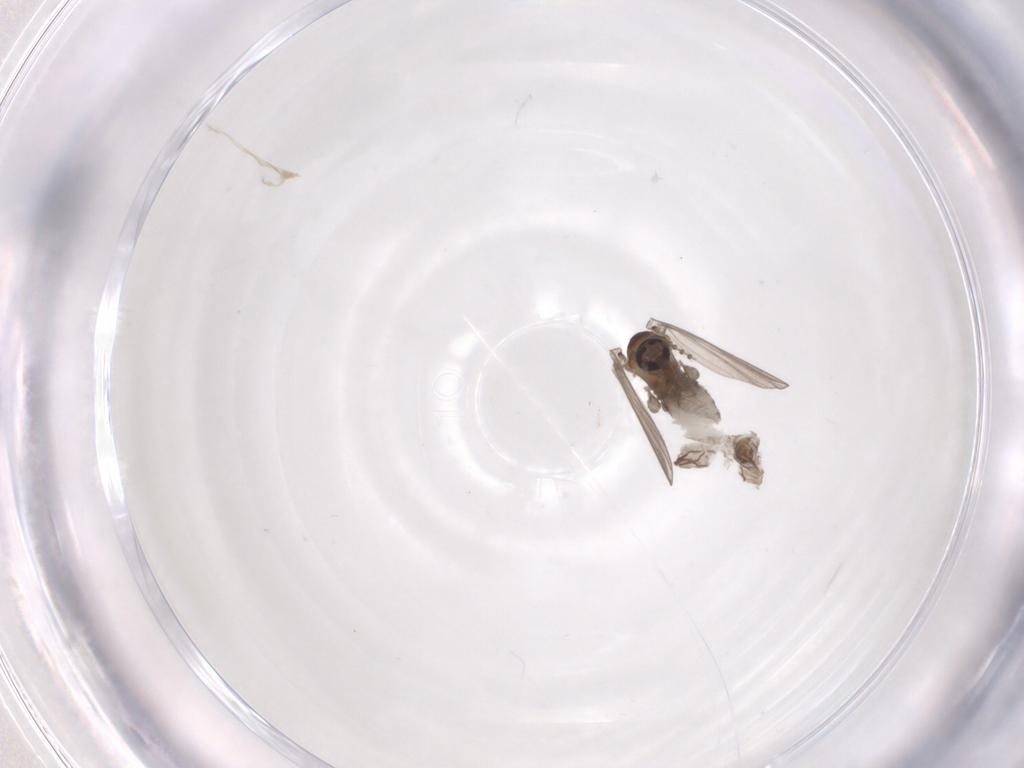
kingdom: Animalia
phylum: Arthropoda
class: Insecta
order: Diptera
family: Psychodidae
